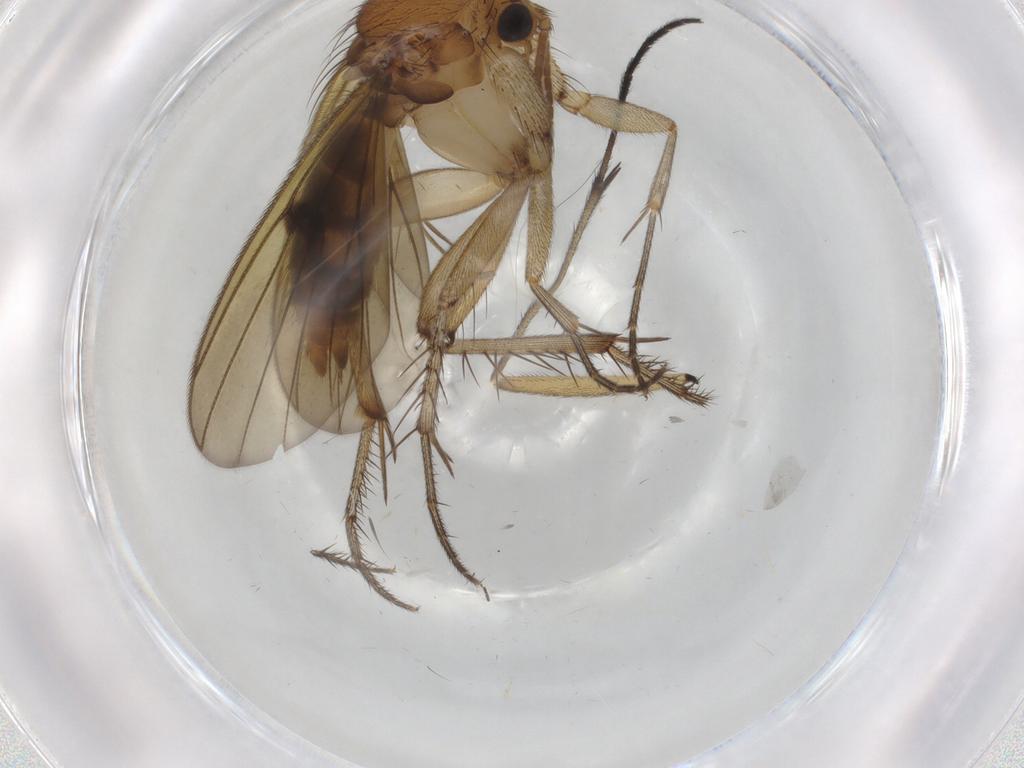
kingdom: Animalia
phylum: Arthropoda
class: Insecta
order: Diptera
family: Mycetophilidae
